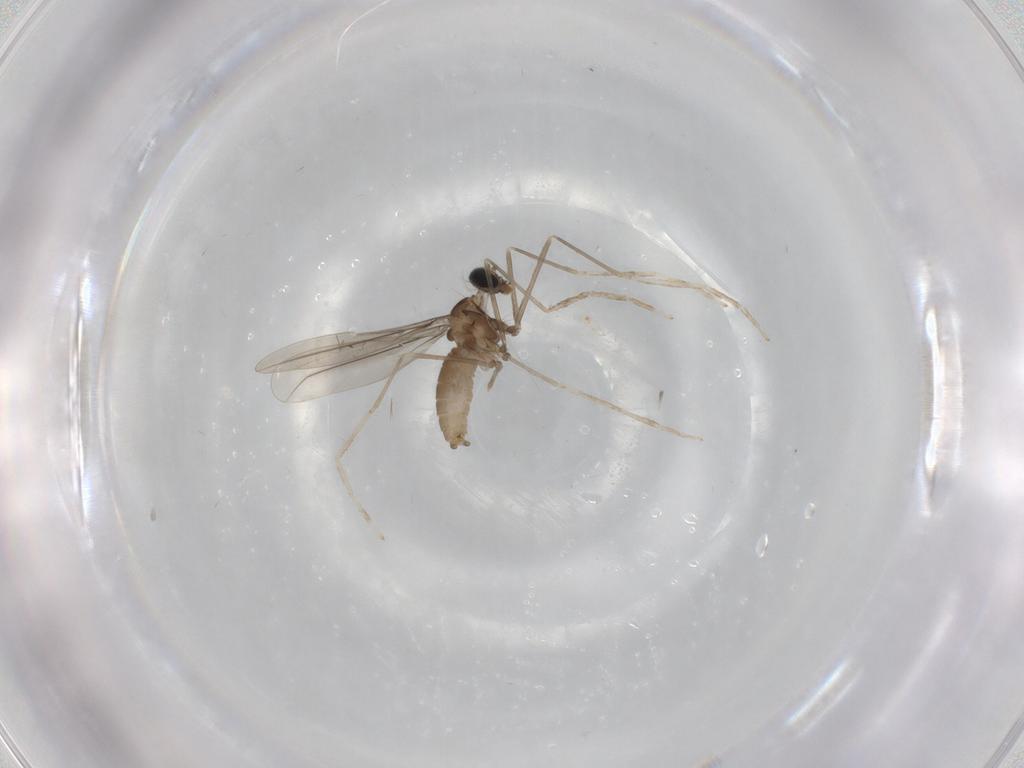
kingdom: Animalia
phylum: Arthropoda
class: Insecta
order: Diptera
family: Cecidomyiidae
